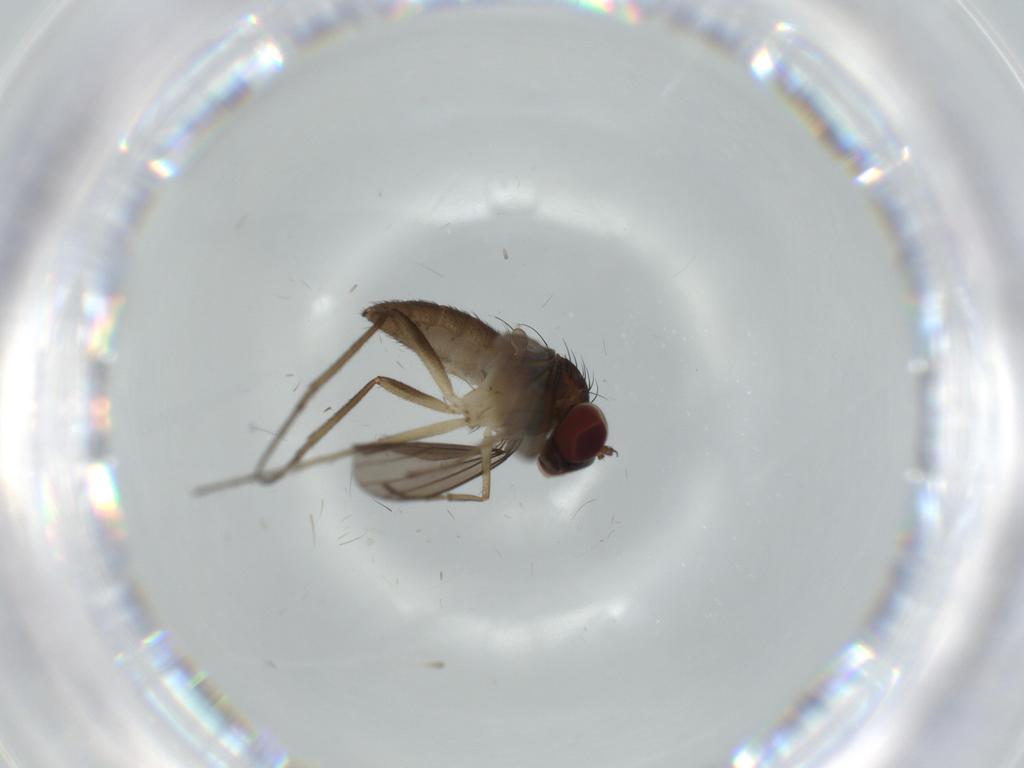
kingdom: Animalia
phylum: Arthropoda
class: Insecta
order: Diptera
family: Dolichopodidae
